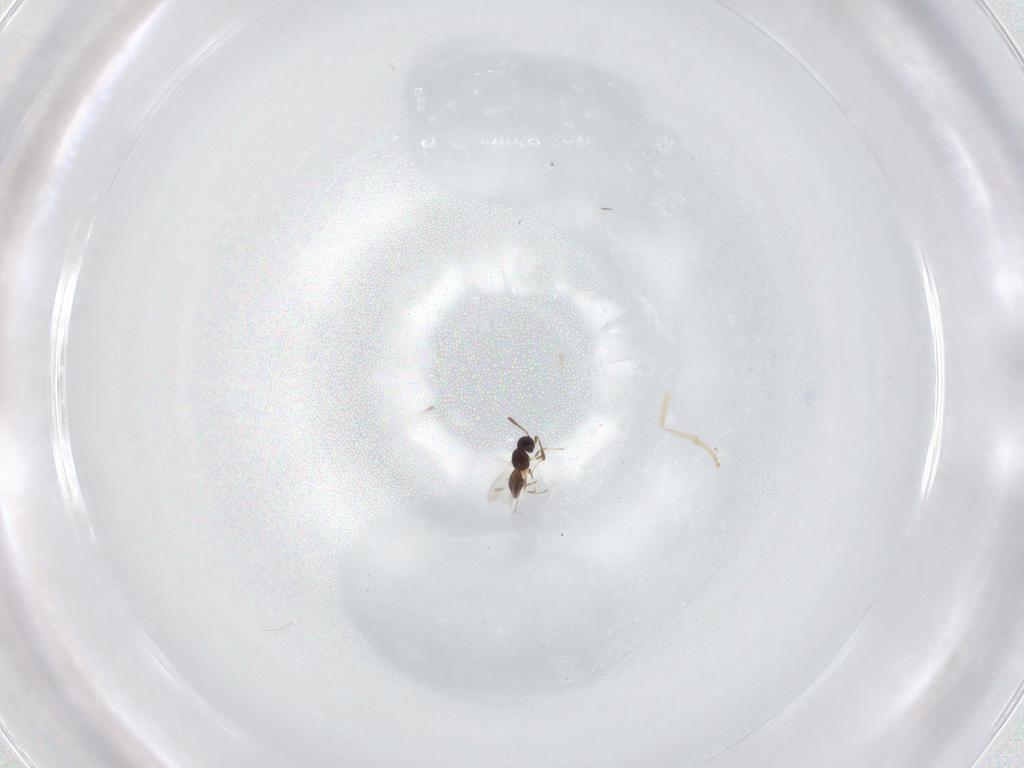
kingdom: Animalia
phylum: Arthropoda
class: Insecta
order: Hymenoptera
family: Scelionidae
